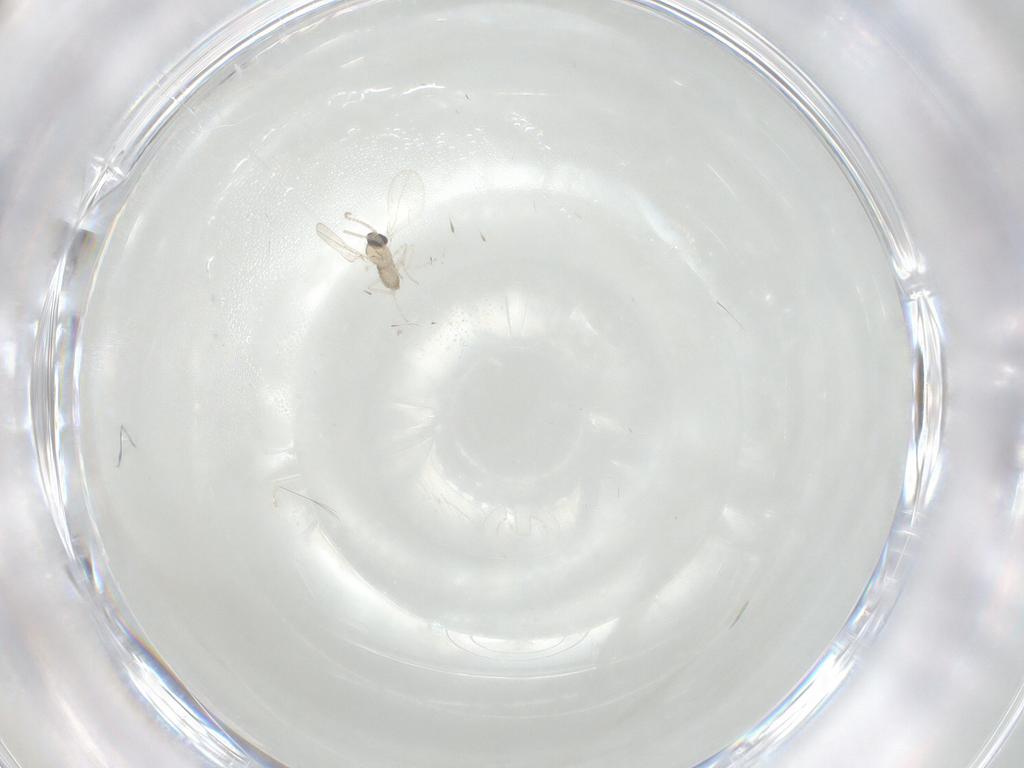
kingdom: Animalia
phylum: Arthropoda
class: Insecta
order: Diptera
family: Cecidomyiidae
